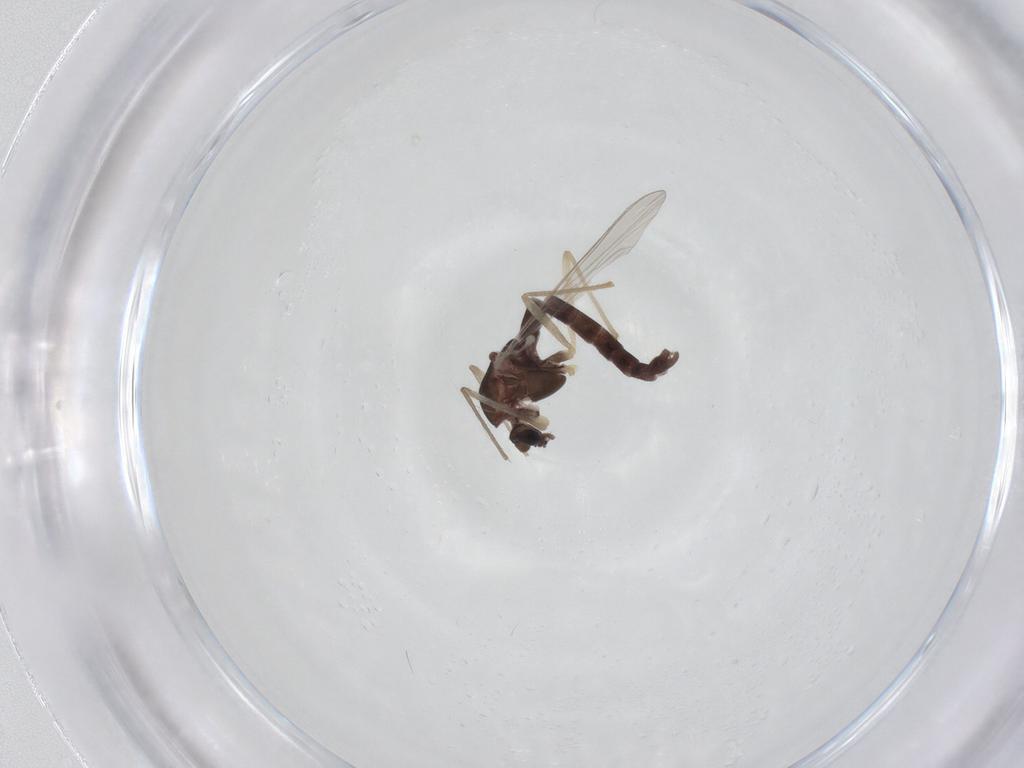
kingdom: Animalia
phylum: Arthropoda
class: Insecta
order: Diptera
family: Chironomidae
